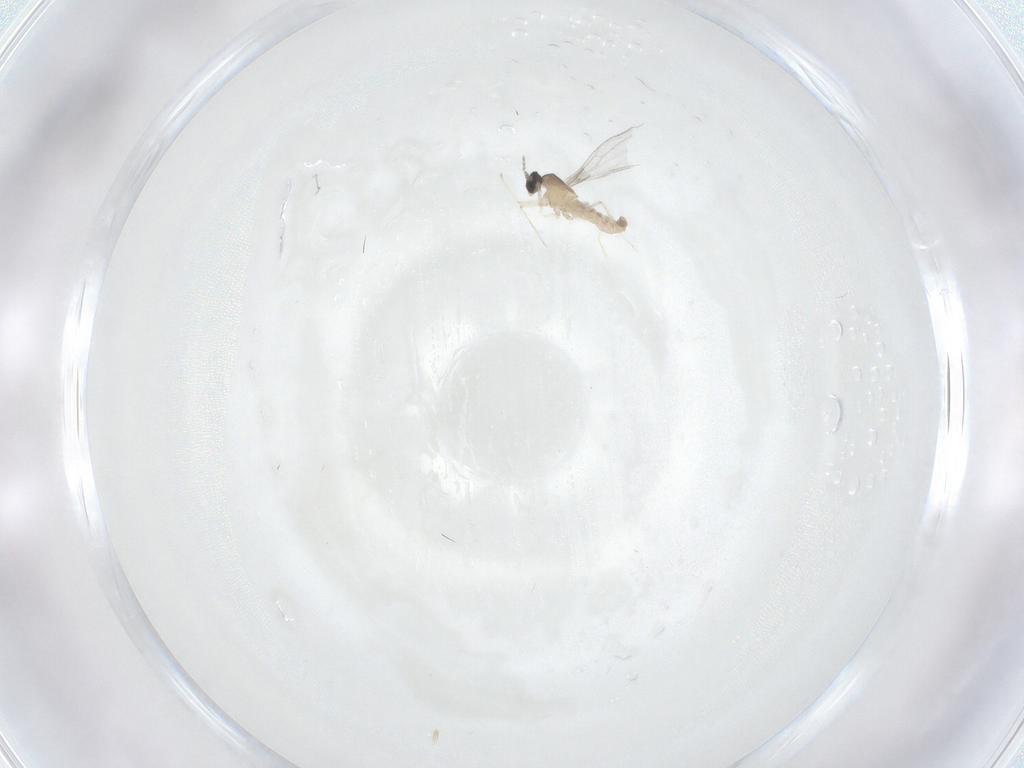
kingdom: Animalia
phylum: Arthropoda
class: Insecta
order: Diptera
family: Cecidomyiidae
